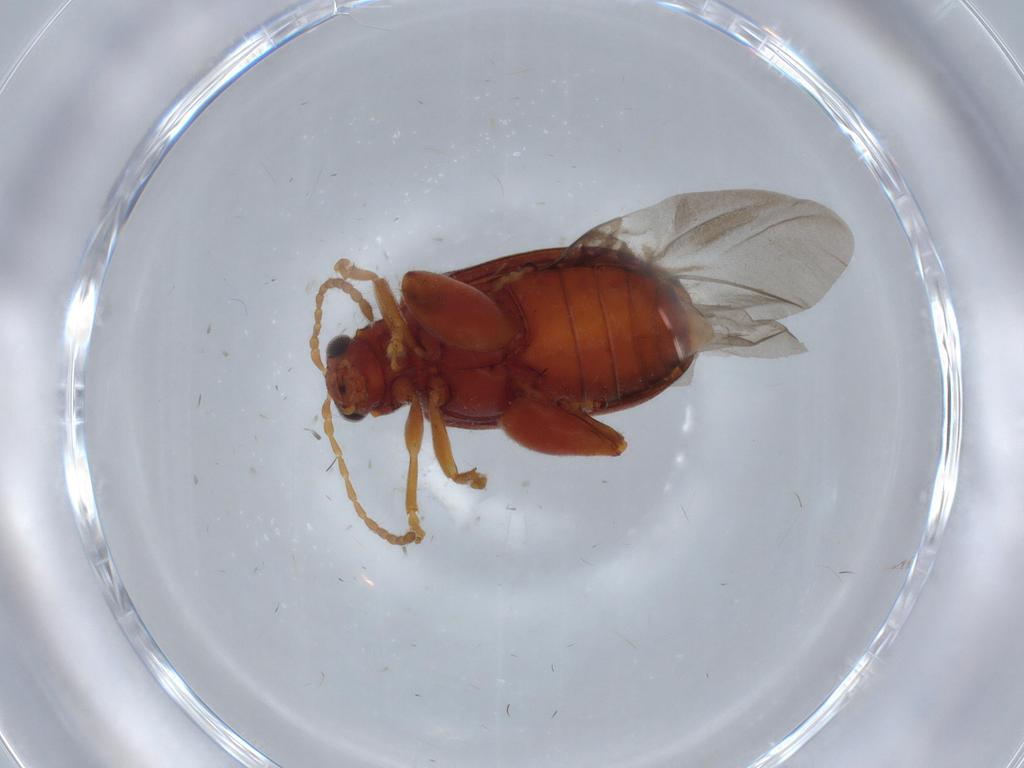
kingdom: Animalia
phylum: Arthropoda
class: Insecta
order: Coleoptera
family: Chrysomelidae
